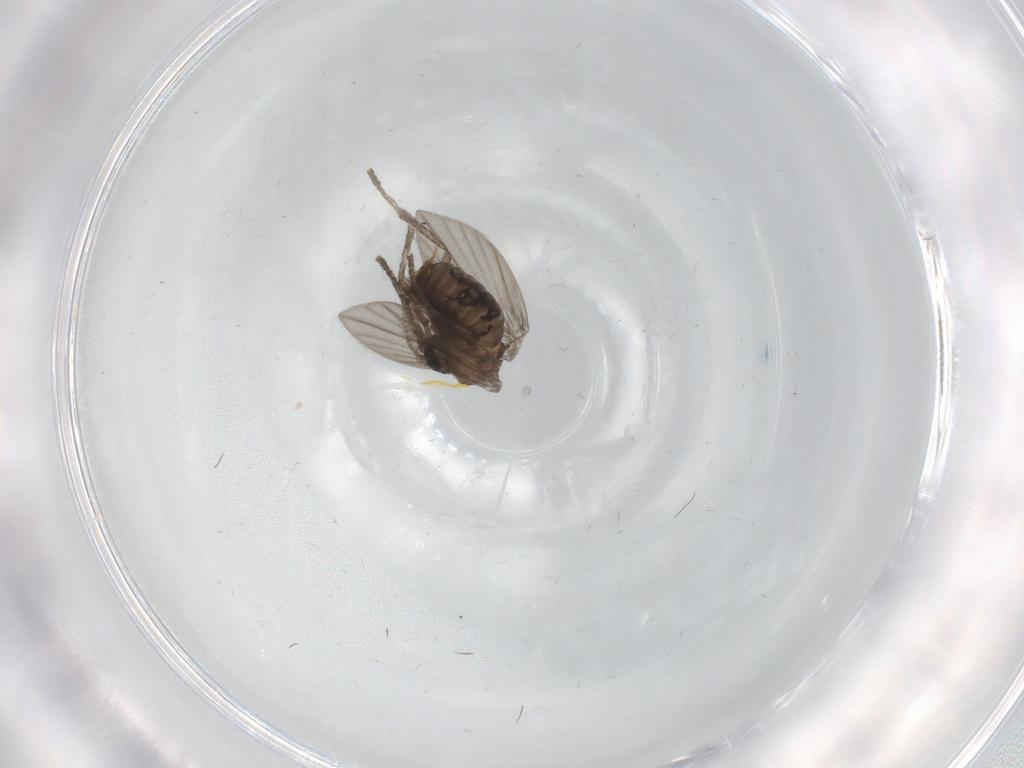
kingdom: Animalia
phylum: Arthropoda
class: Insecta
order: Diptera
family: Psychodidae
